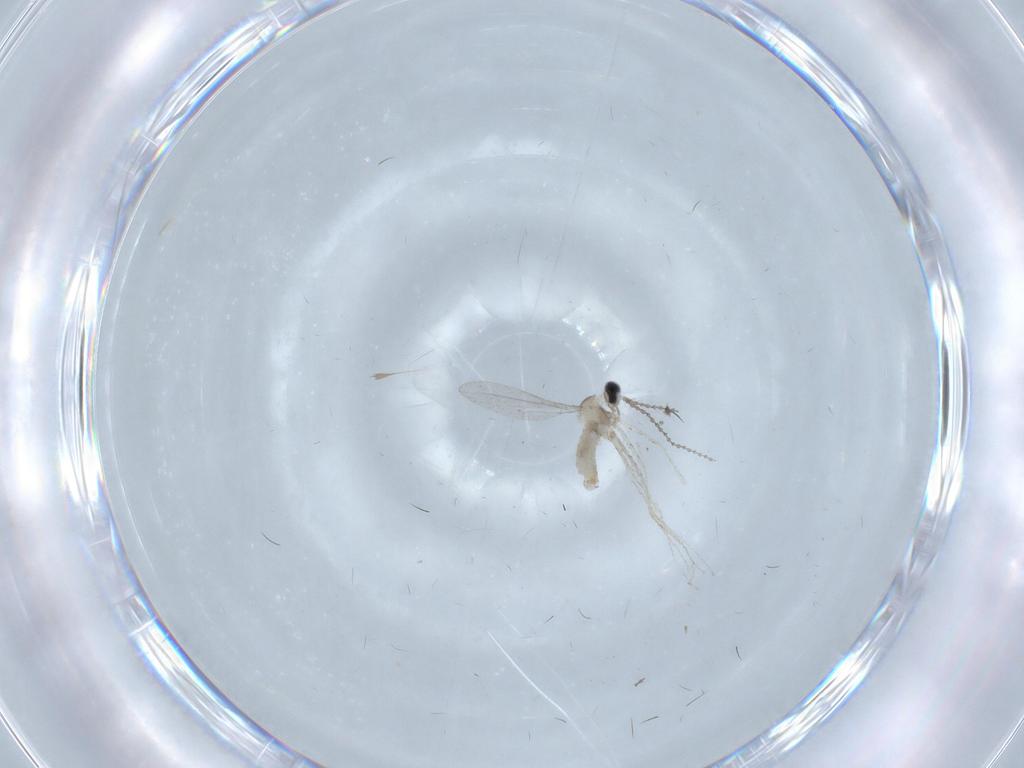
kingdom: Animalia
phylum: Arthropoda
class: Insecta
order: Diptera
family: Cecidomyiidae
